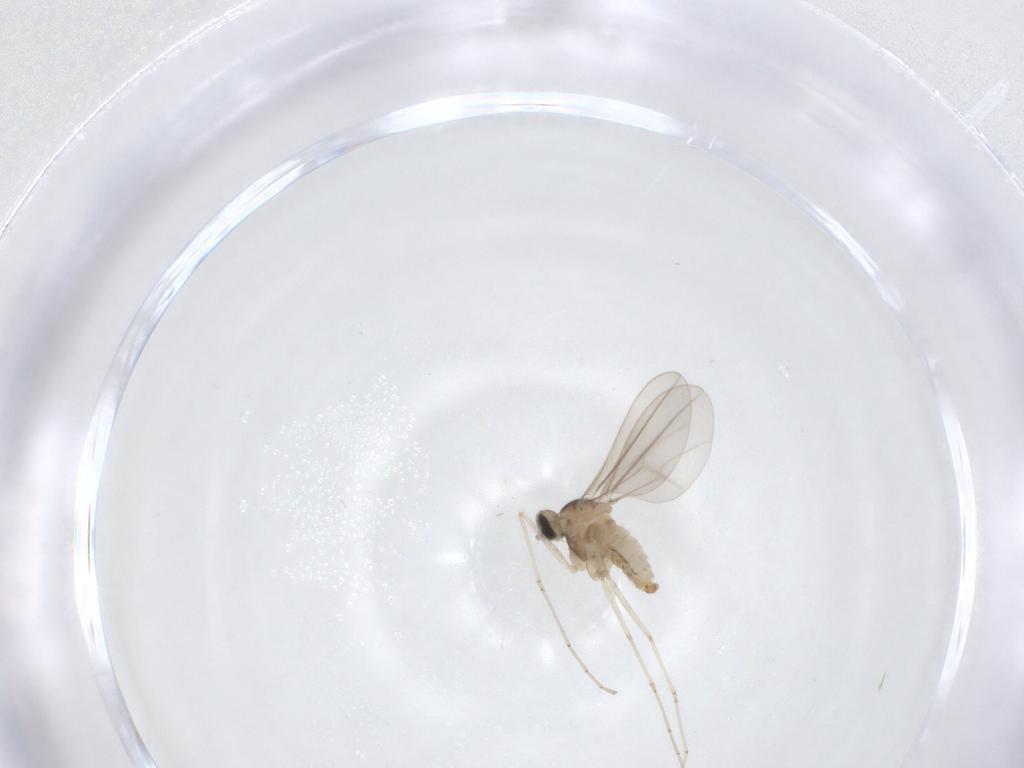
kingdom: Animalia
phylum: Arthropoda
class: Insecta
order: Diptera
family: Cecidomyiidae
